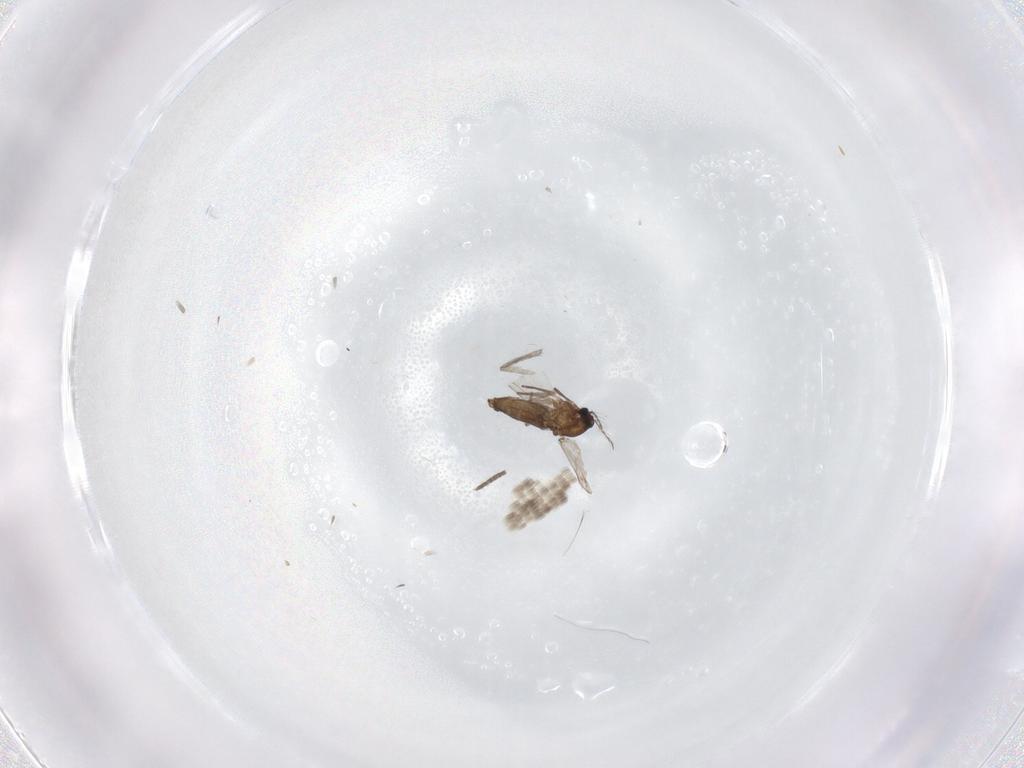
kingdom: Animalia
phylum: Arthropoda
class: Insecta
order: Diptera
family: Chironomidae
